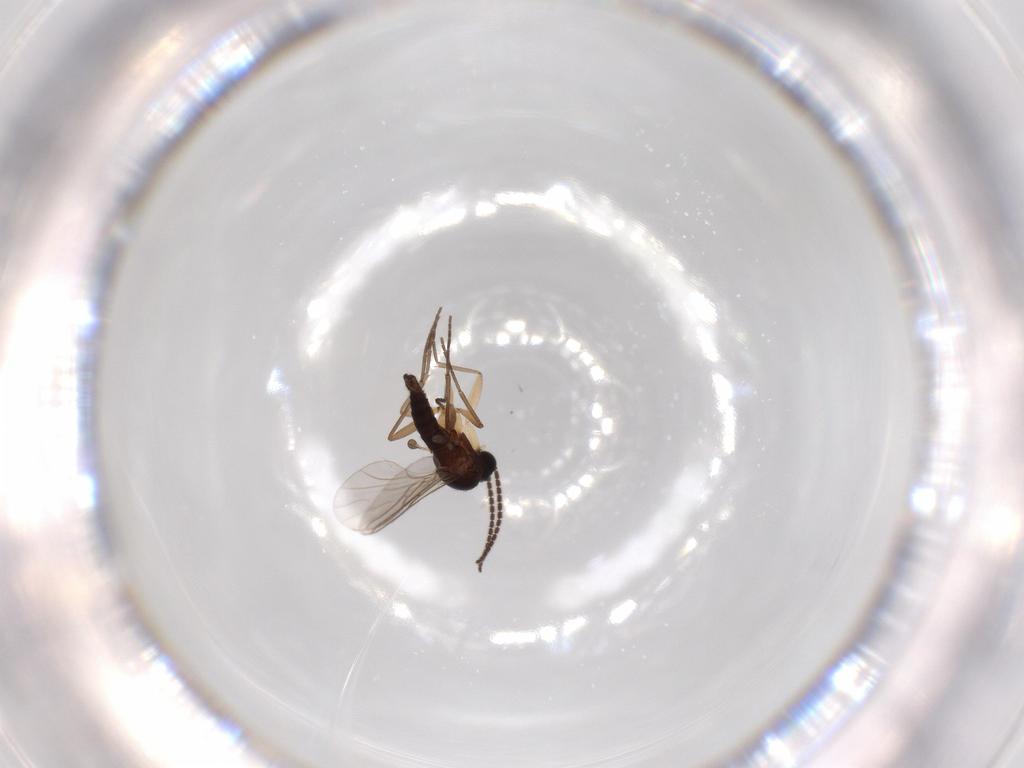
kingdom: Animalia
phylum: Arthropoda
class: Insecta
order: Diptera
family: Sciaridae
